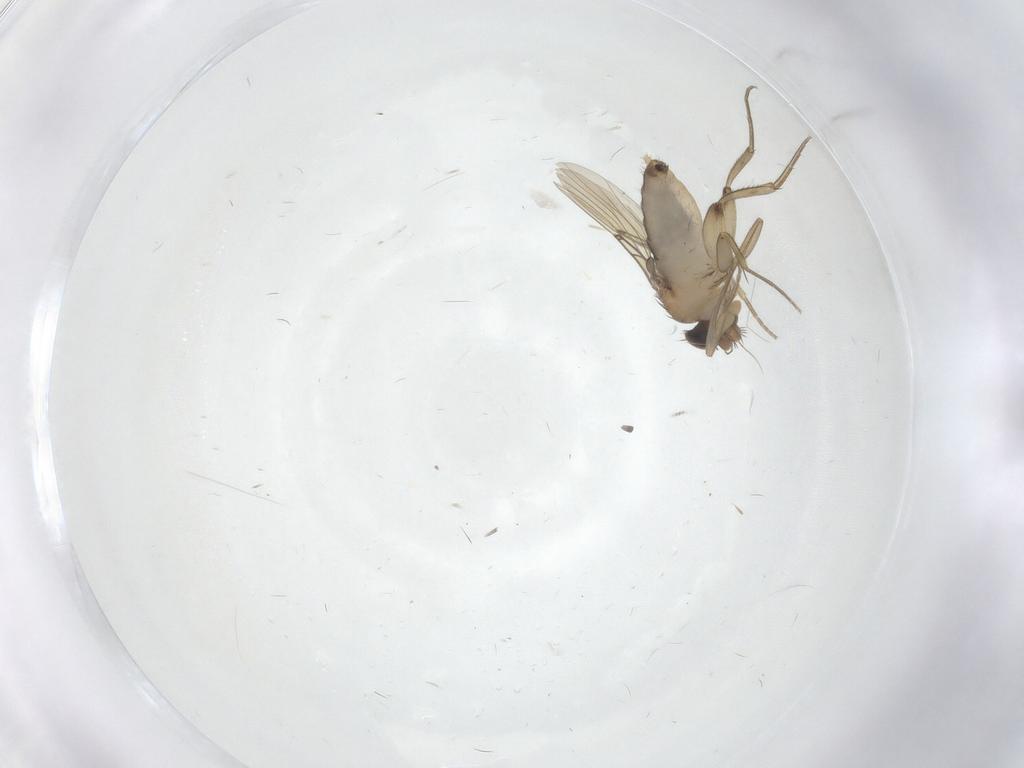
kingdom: Animalia
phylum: Arthropoda
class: Insecta
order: Diptera
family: Phoridae
